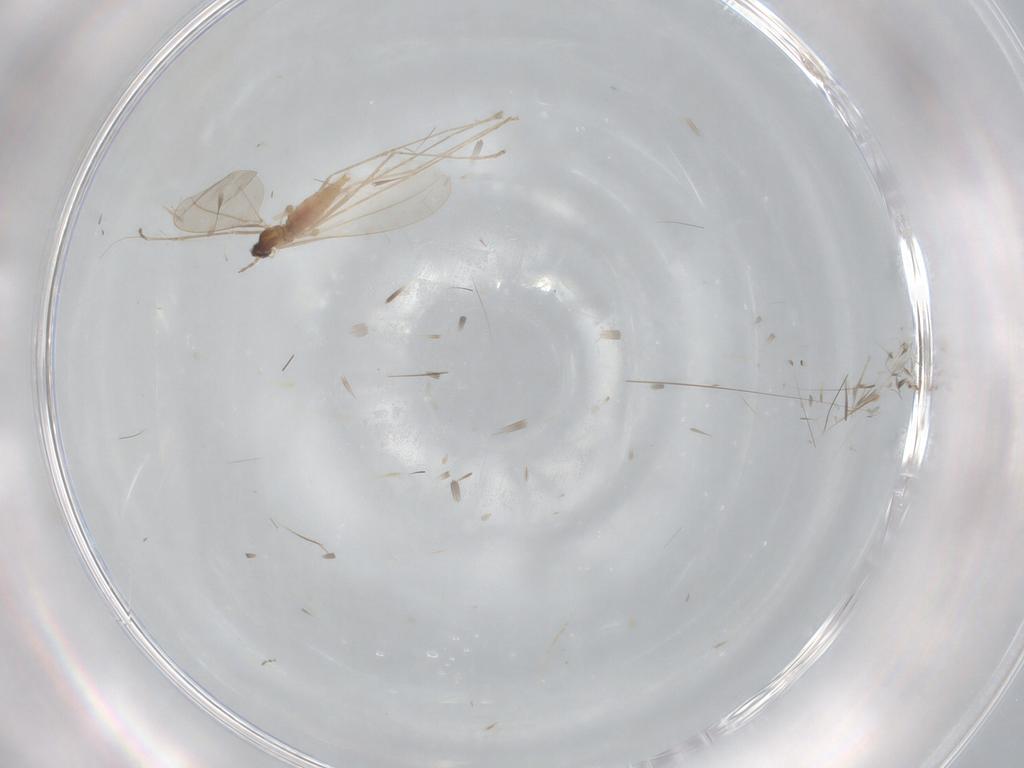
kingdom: Animalia
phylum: Arthropoda
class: Insecta
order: Diptera
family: Cecidomyiidae
